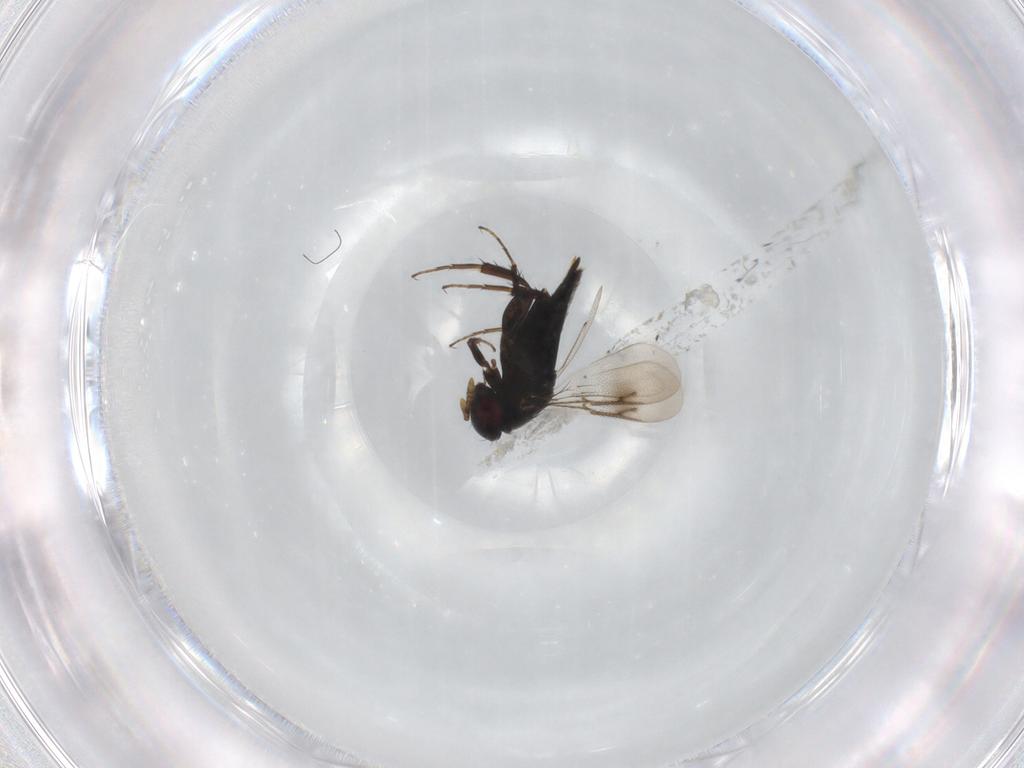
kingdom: Animalia
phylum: Arthropoda
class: Insecta
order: Hymenoptera
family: Pirenidae
